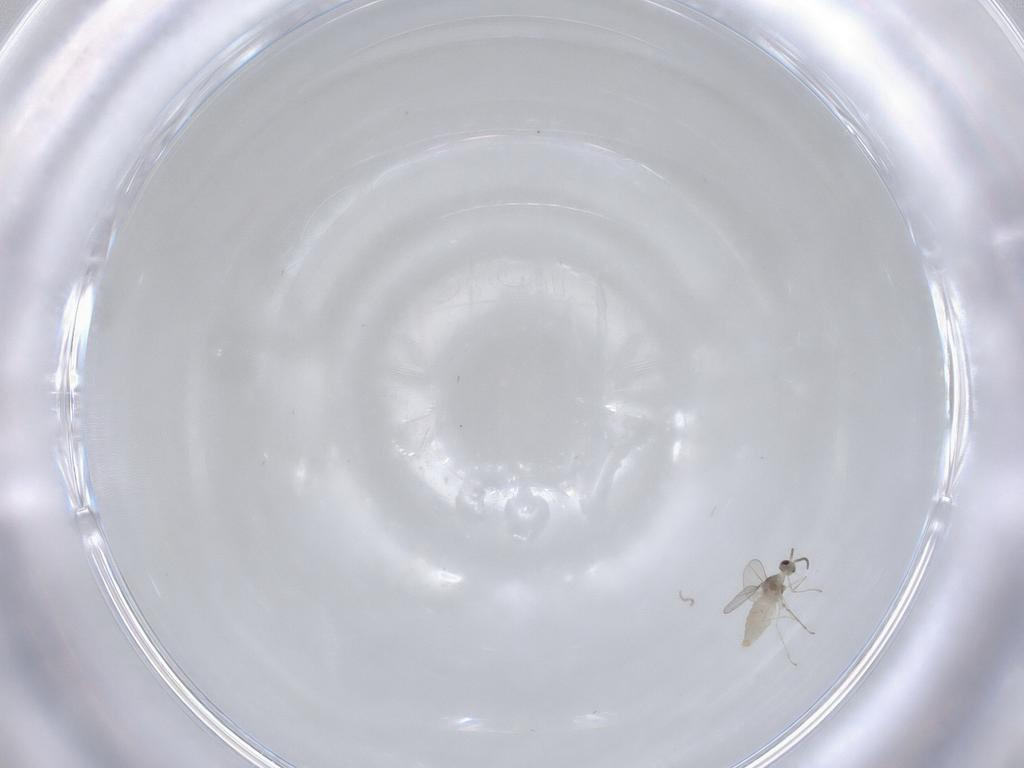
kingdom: Animalia
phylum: Arthropoda
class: Insecta
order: Diptera
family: Cecidomyiidae
